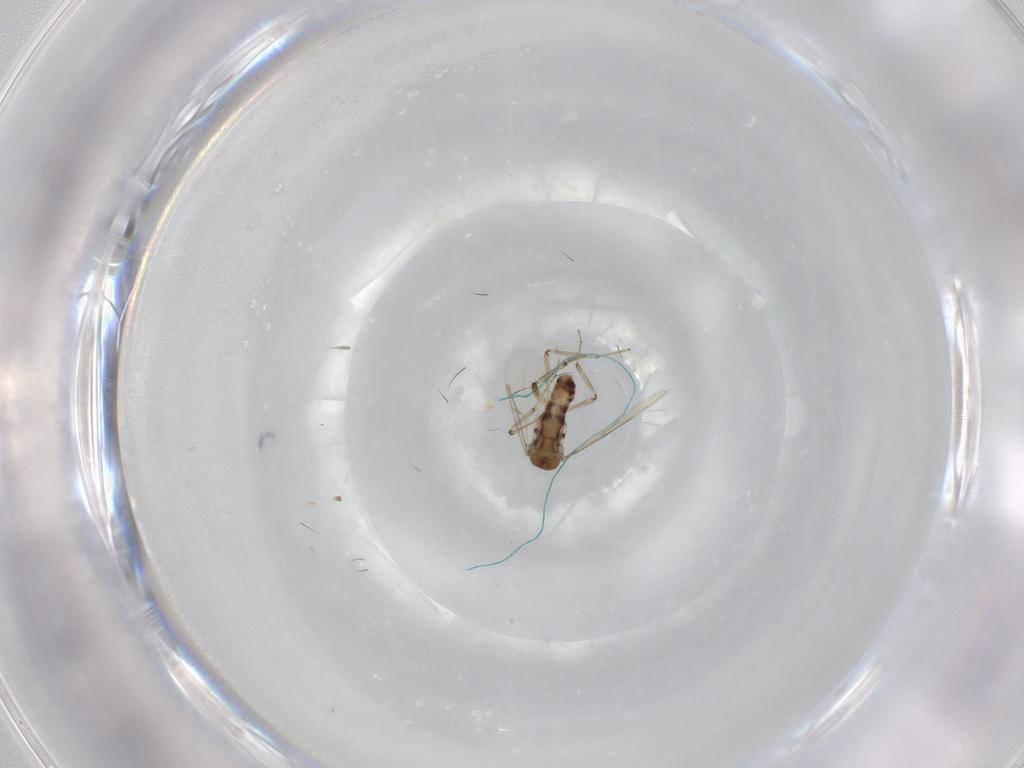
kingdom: Animalia
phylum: Arthropoda
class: Insecta
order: Diptera
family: Ceratopogonidae
